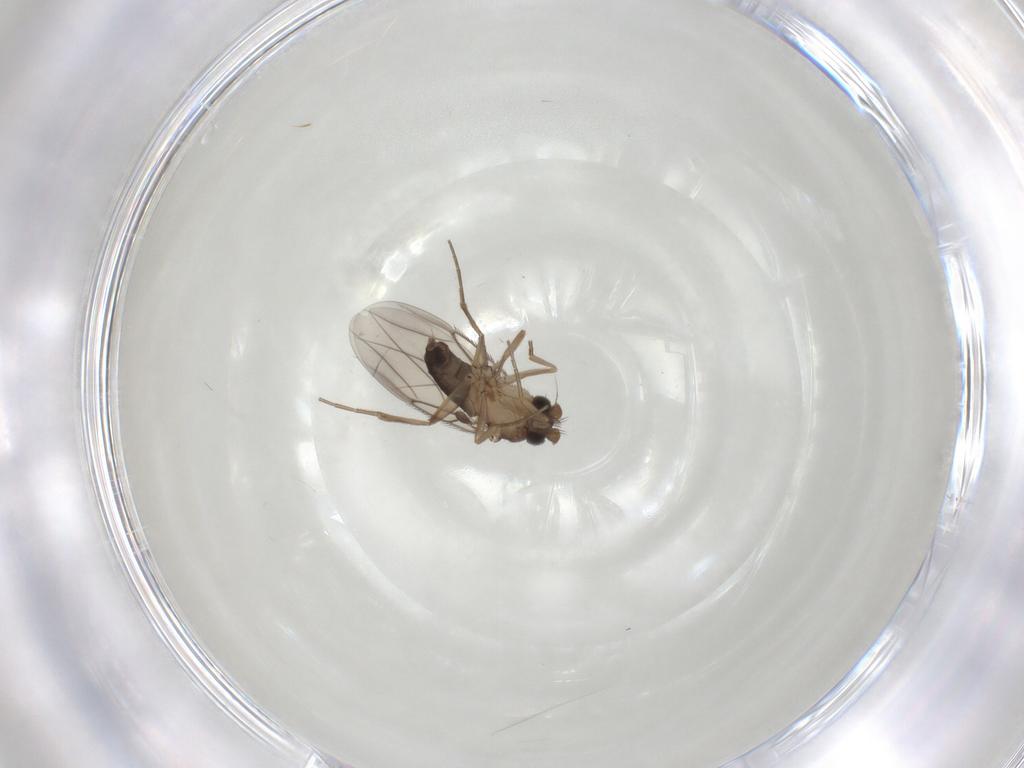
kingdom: Animalia
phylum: Arthropoda
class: Insecta
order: Diptera
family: Phoridae
